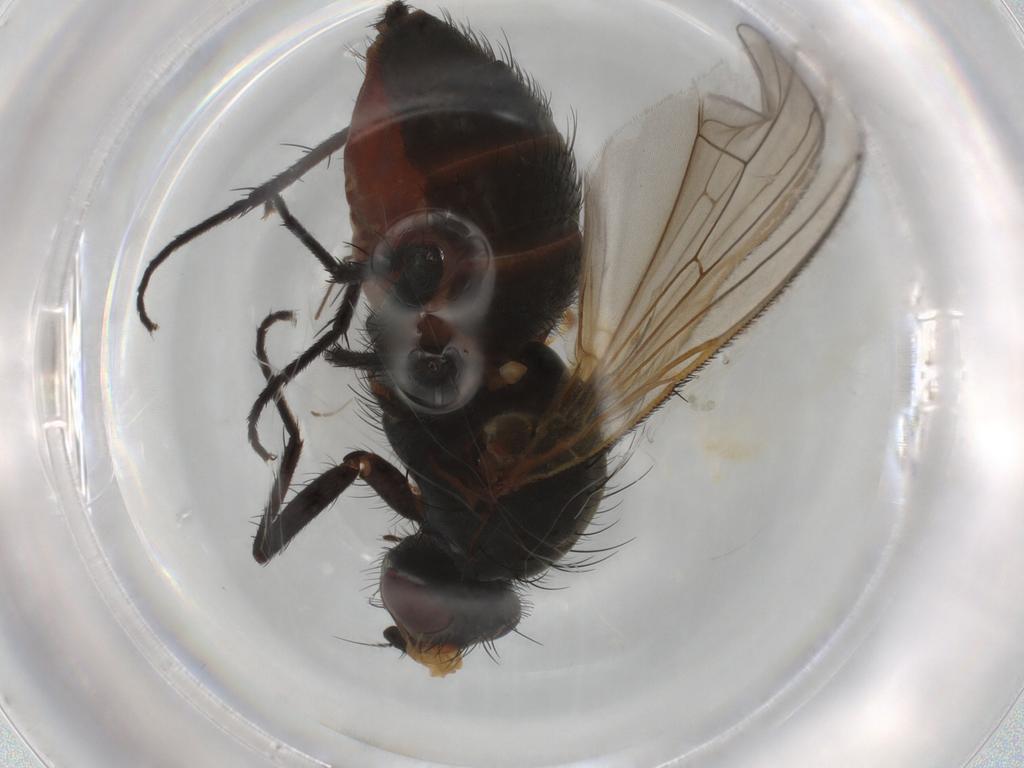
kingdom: Animalia
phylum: Arthropoda
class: Insecta
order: Diptera
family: Anthomyiidae
